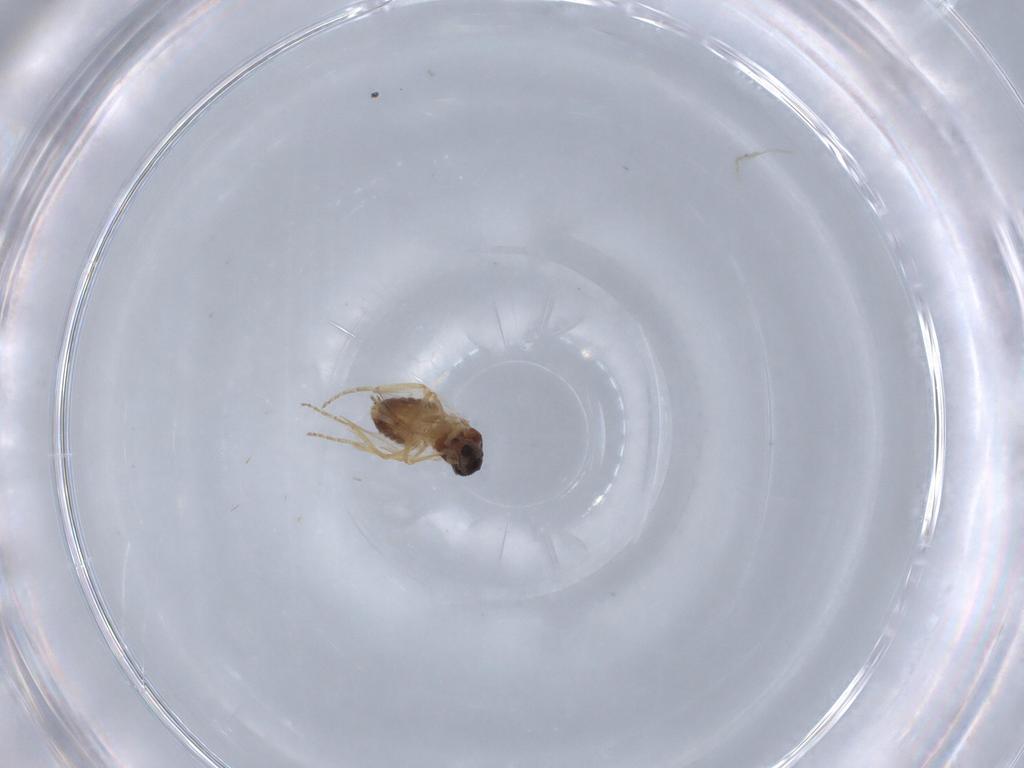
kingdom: Animalia
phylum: Arthropoda
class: Insecta
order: Diptera
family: Ceratopogonidae
